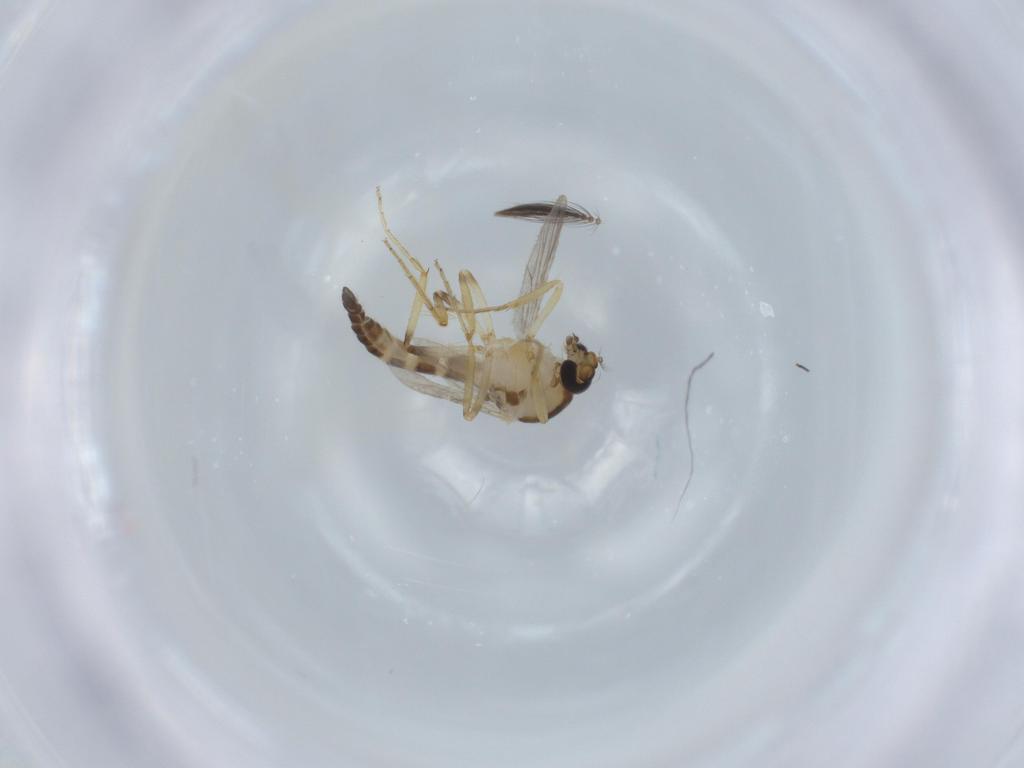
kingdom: Animalia
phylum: Arthropoda
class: Insecta
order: Diptera
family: Ceratopogonidae
